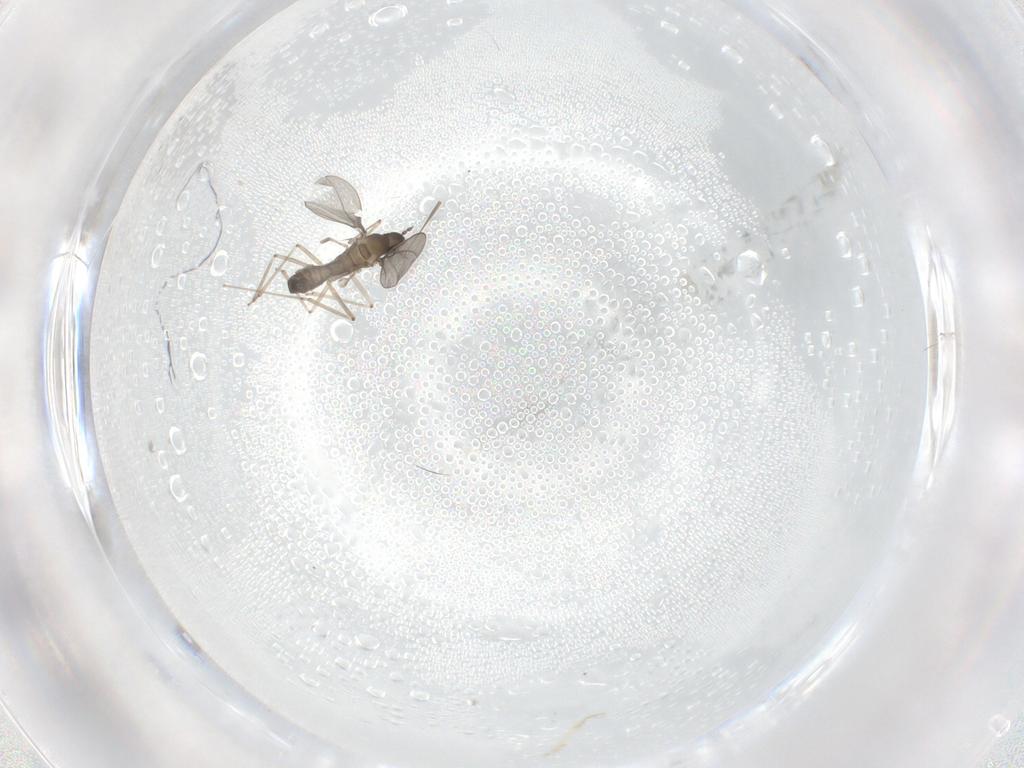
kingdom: Animalia
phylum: Arthropoda
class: Insecta
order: Diptera
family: Cecidomyiidae
